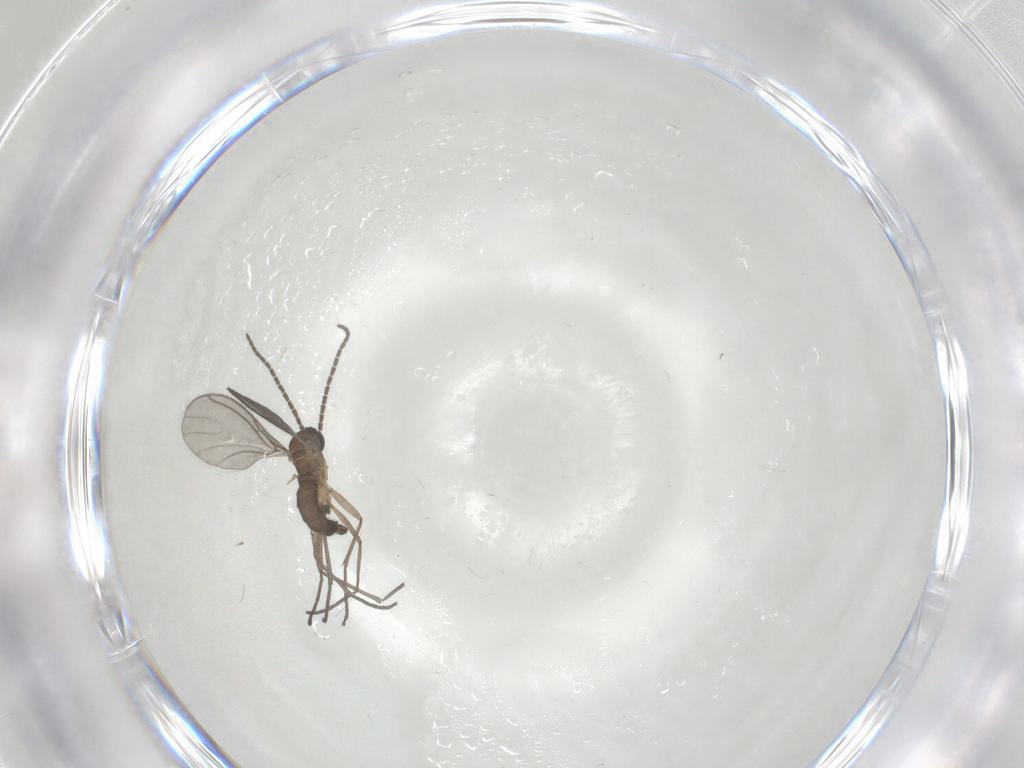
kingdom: Animalia
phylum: Arthropoda
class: Insecta
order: Diptera
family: Sciaridae
